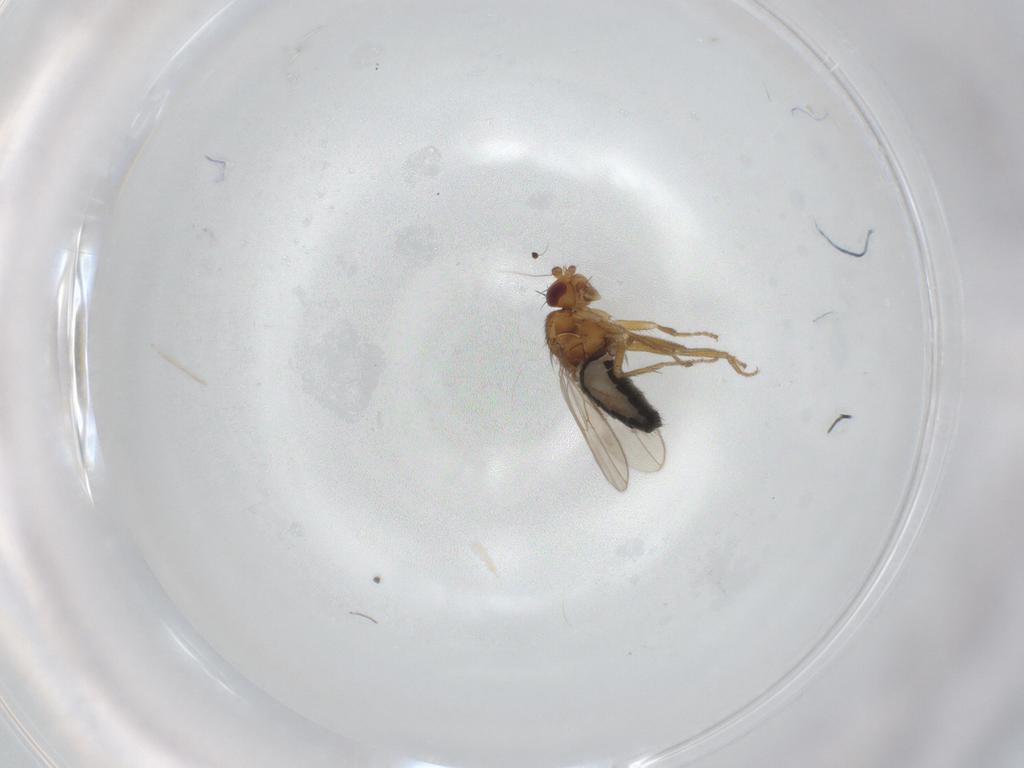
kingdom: Animalia
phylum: Arthropoda
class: Insecta
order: Diptera
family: Sphaeroceridae
